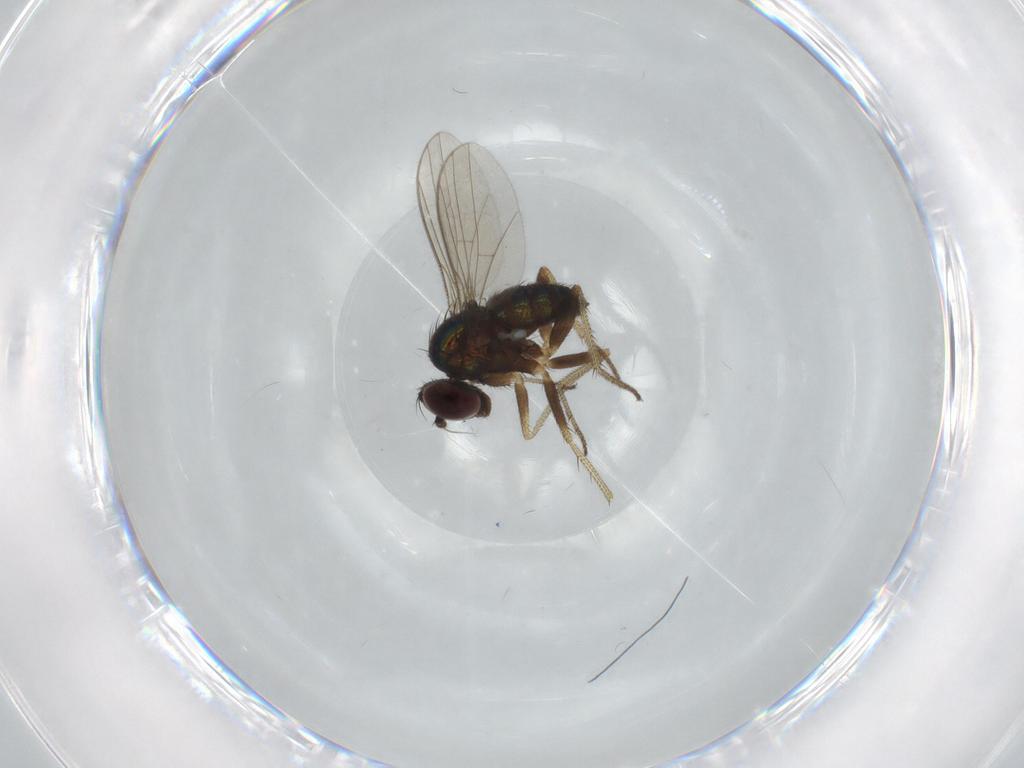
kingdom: Animalia
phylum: Arthropoda
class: Insecta
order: Diptera
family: Dolichopodidae
